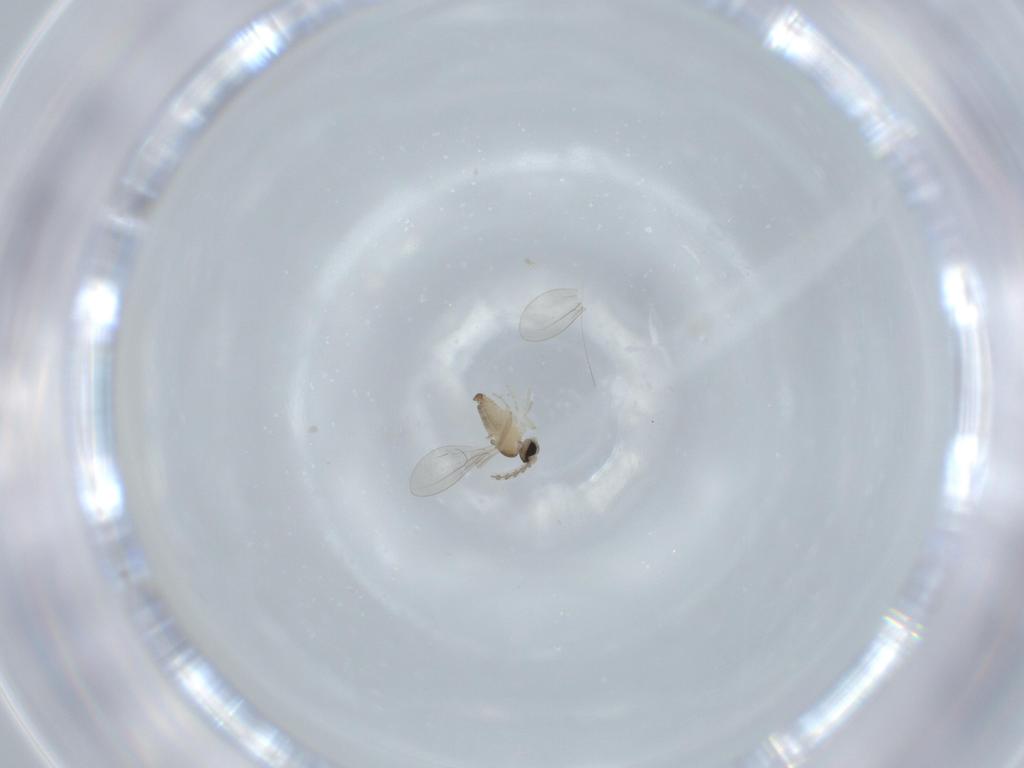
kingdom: Animalia
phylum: Arthropoda
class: Insecta
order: Diptera
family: Cecidomyiidae
